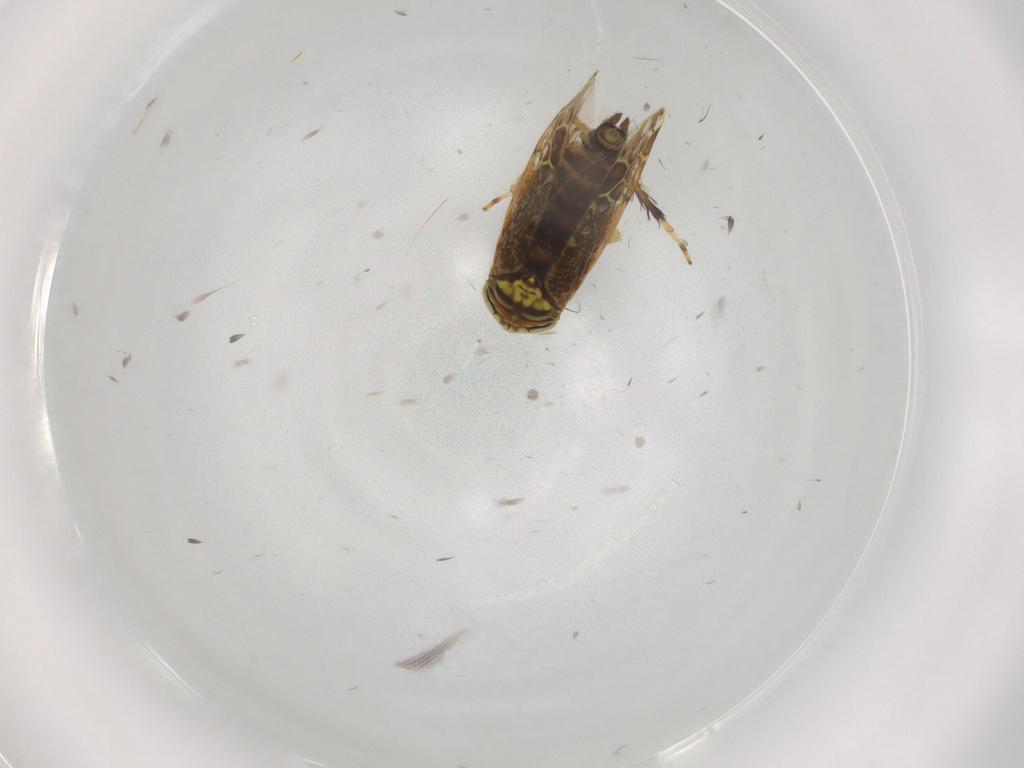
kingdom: Animalia
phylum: Arthropoda
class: Insecta
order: Hemiptera
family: Cicadellidae
